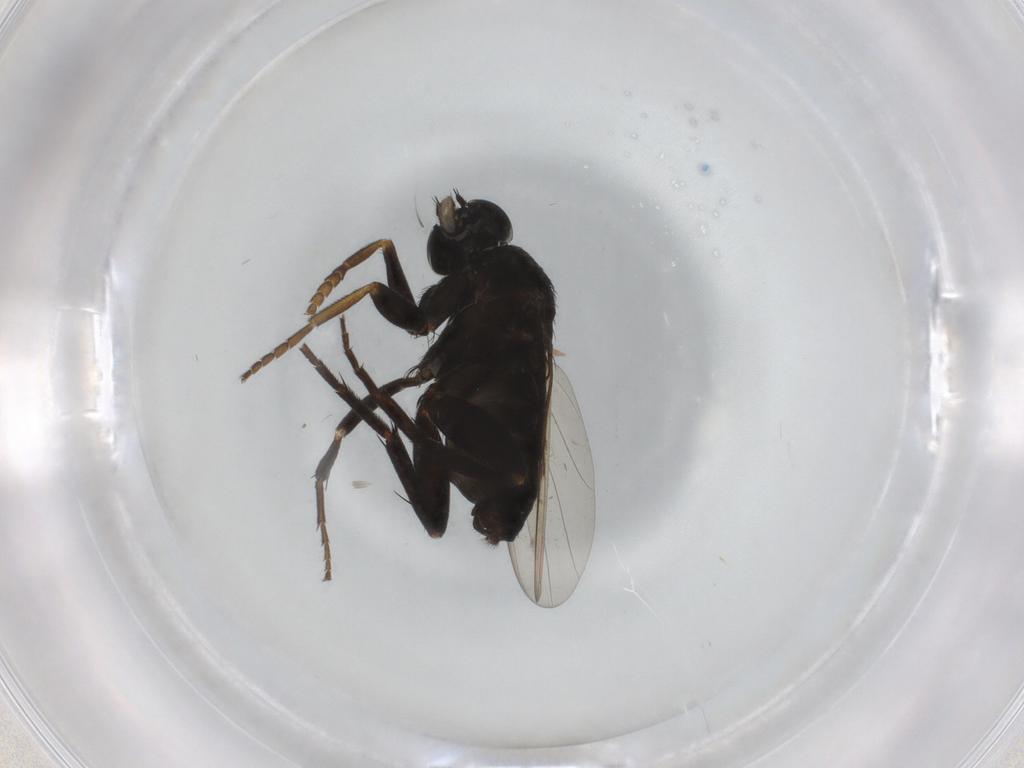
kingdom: Animalia
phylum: Arthropoda
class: Insecta
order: Diptera
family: Phoridae
